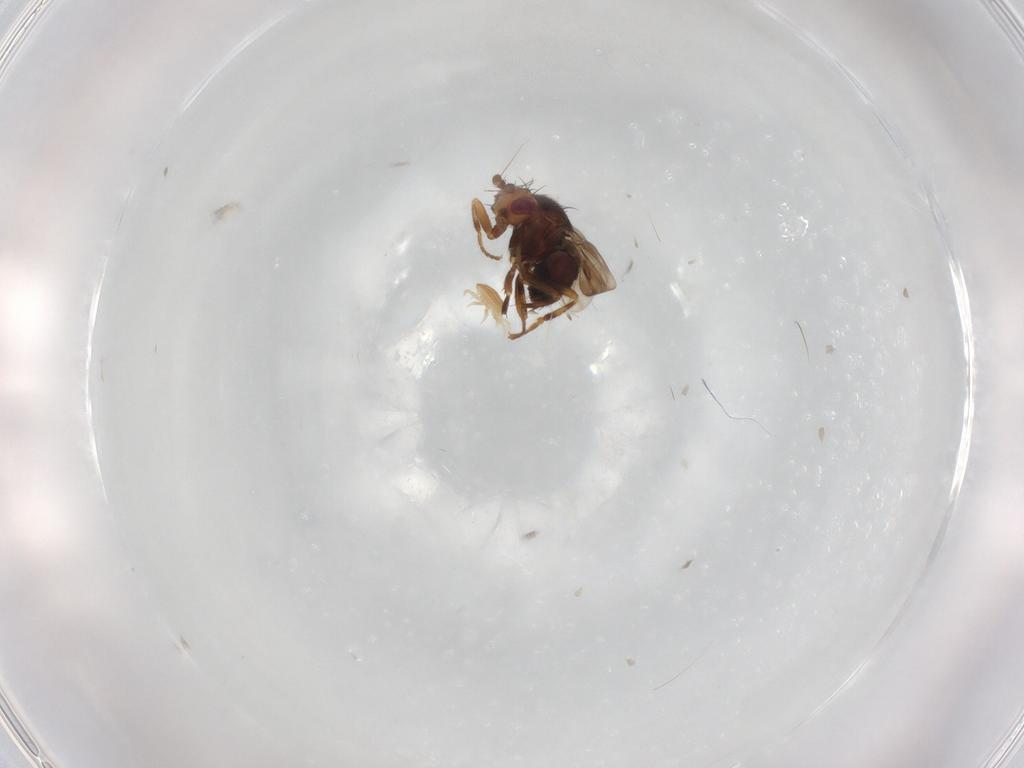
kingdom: Animalia
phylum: Arthropoda
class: Insecta
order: Diptera
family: Sphaeroceridae
